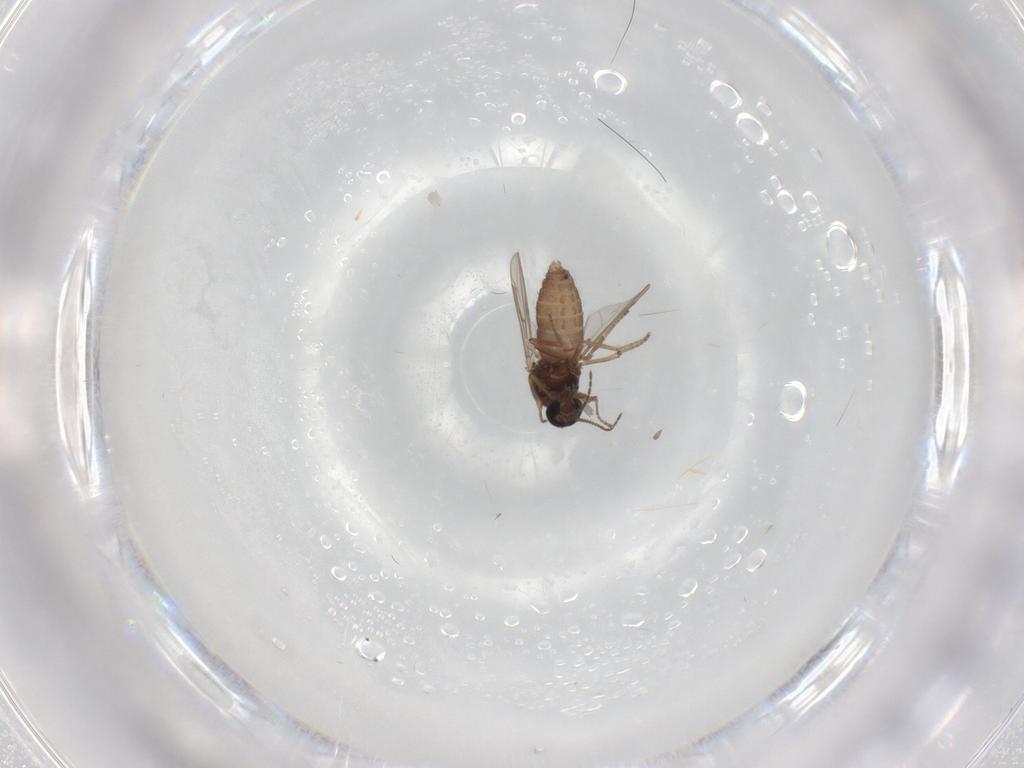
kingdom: Animalia
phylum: Arthropoda
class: Insecta
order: Diptera
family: Ceratopogonidae
